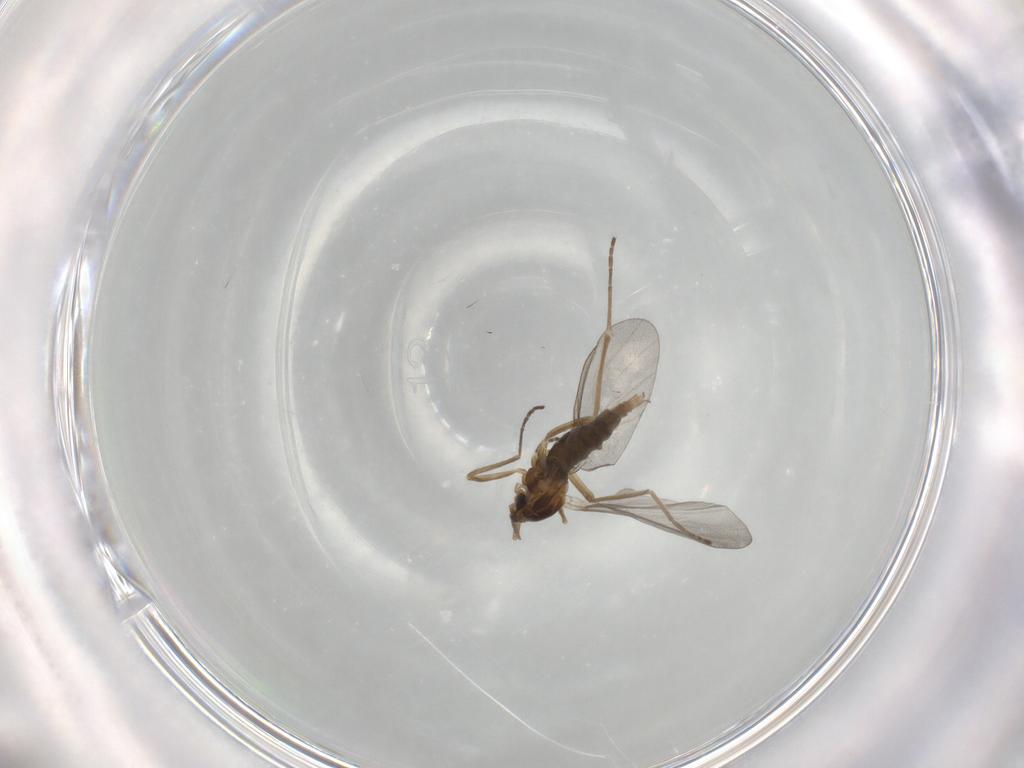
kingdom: Animalia
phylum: Arthropoda
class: Insecta
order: Diptera
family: Cecidomyiidae
